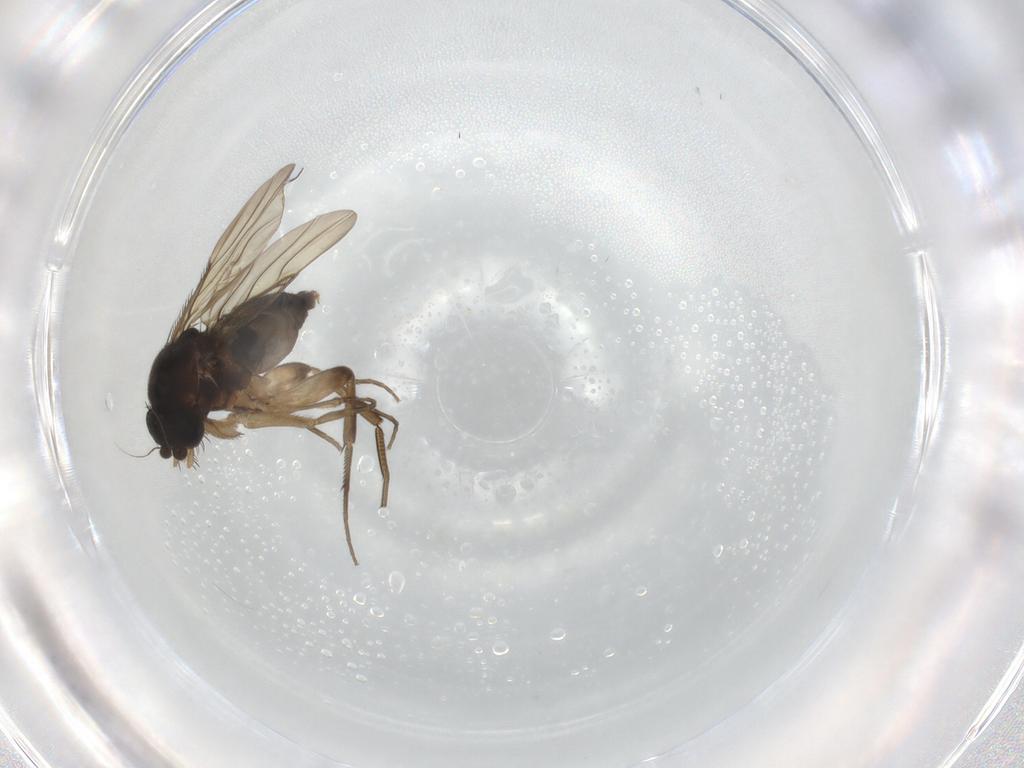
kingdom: Animalia
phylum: Arthropoda
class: Insecta
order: Diptera
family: Phoridae
